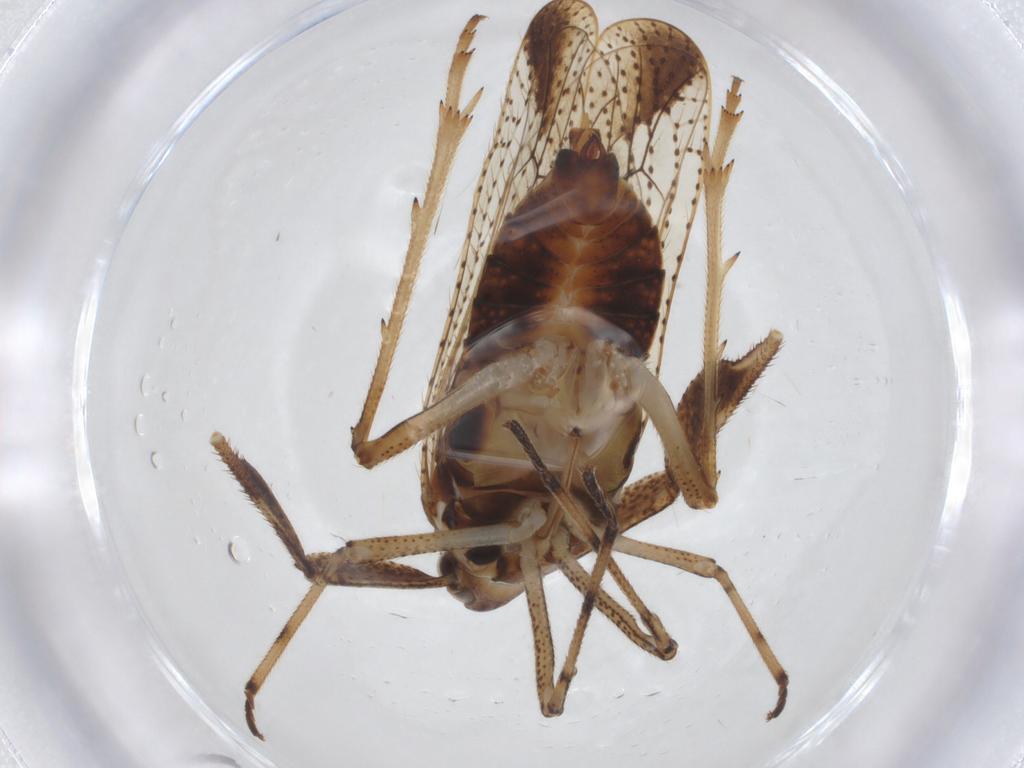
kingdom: Animalia
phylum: Arthropoda
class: Insecta
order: Hemiptera
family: Delphacidae
